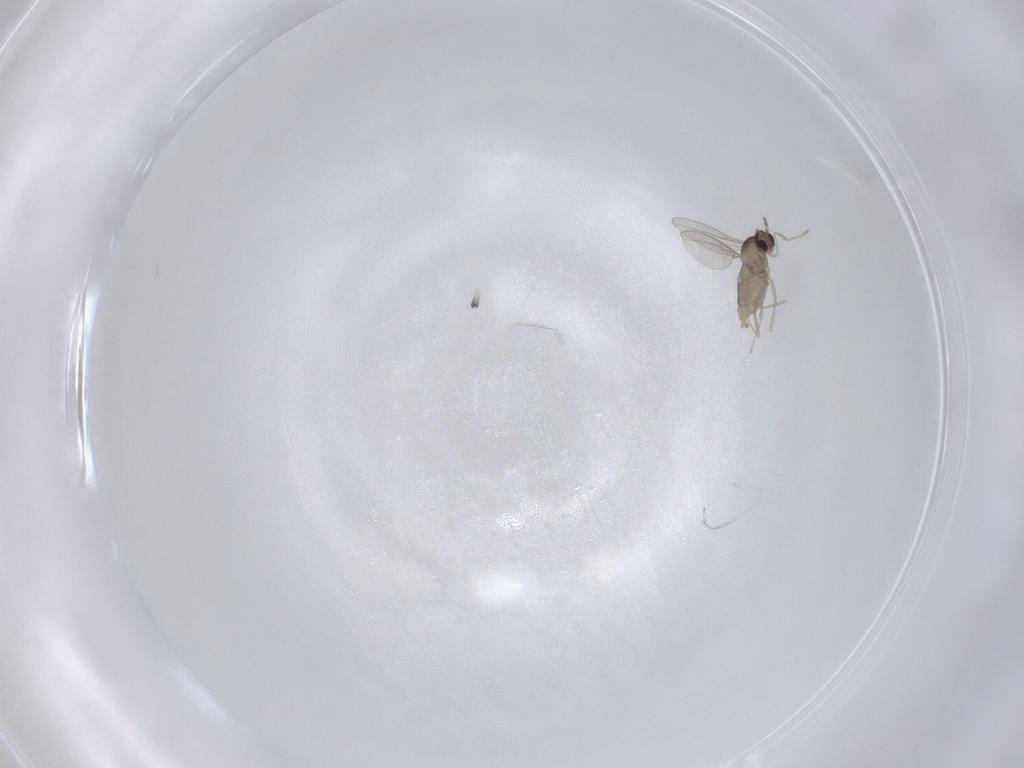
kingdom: Animalia
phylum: Arthropoda
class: Insecta
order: Diptera
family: Cecidomyiidae
